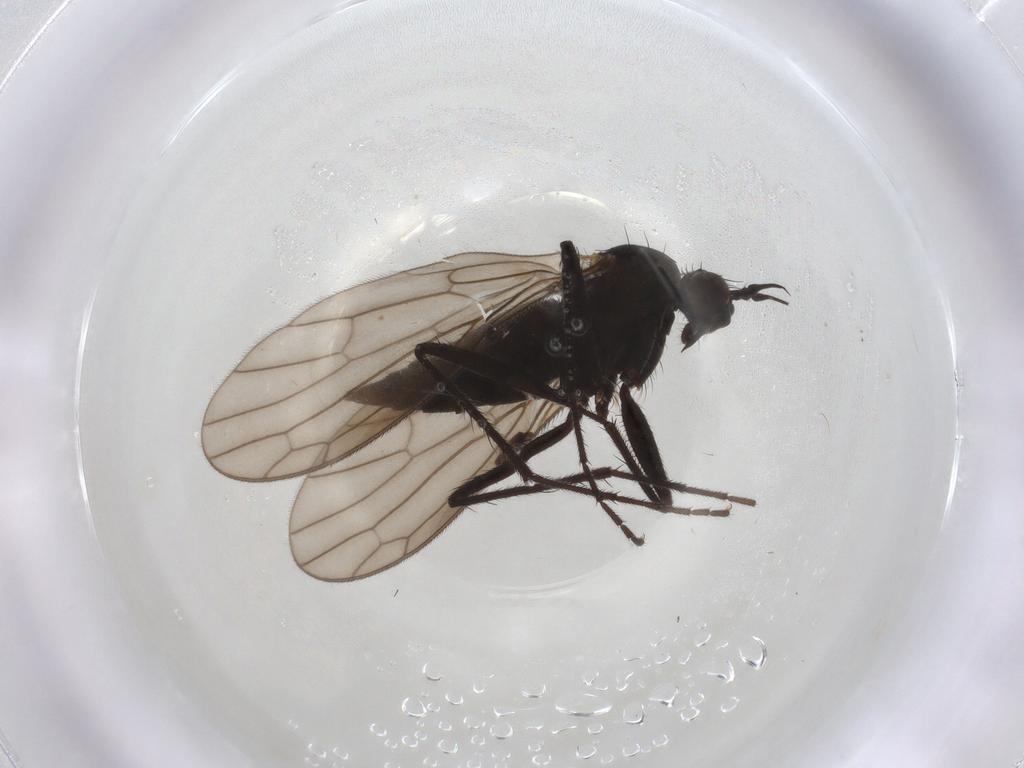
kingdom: Animalia
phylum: Arthropoda
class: Insecta
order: Diptera
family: Empididae
